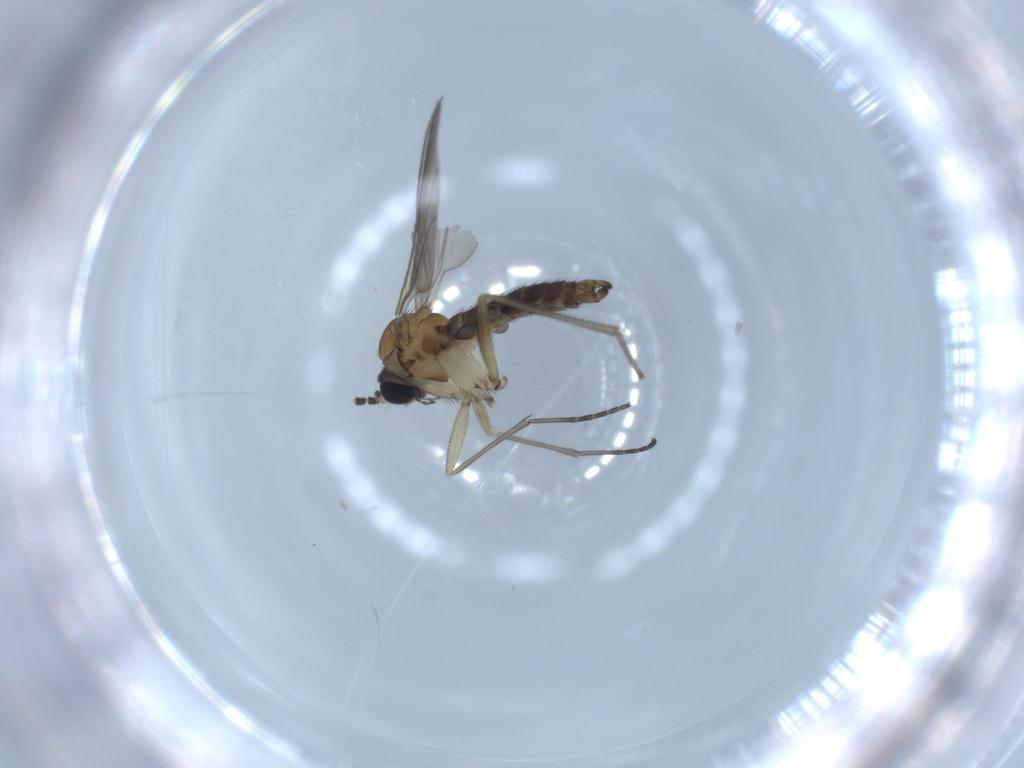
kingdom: Animalia
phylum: Arthropoda
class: Insecta
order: Diptera
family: Sciaridae
